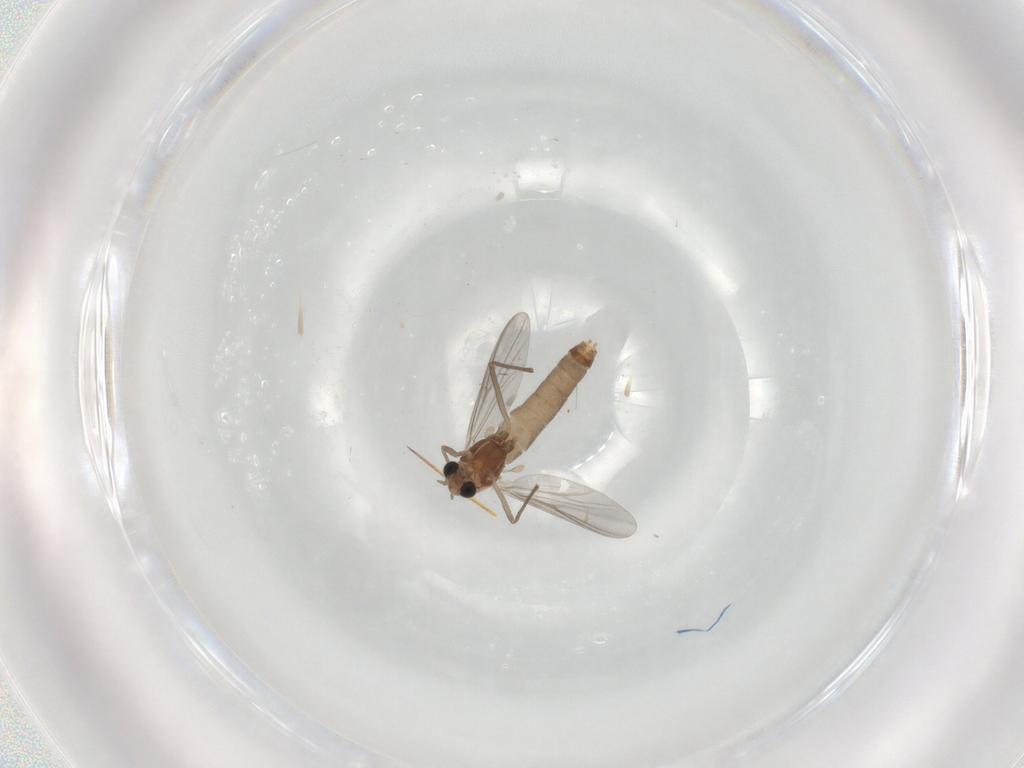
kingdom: Animalia
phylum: Arthropoda
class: Insecta
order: Diptera
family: Chironomidae
